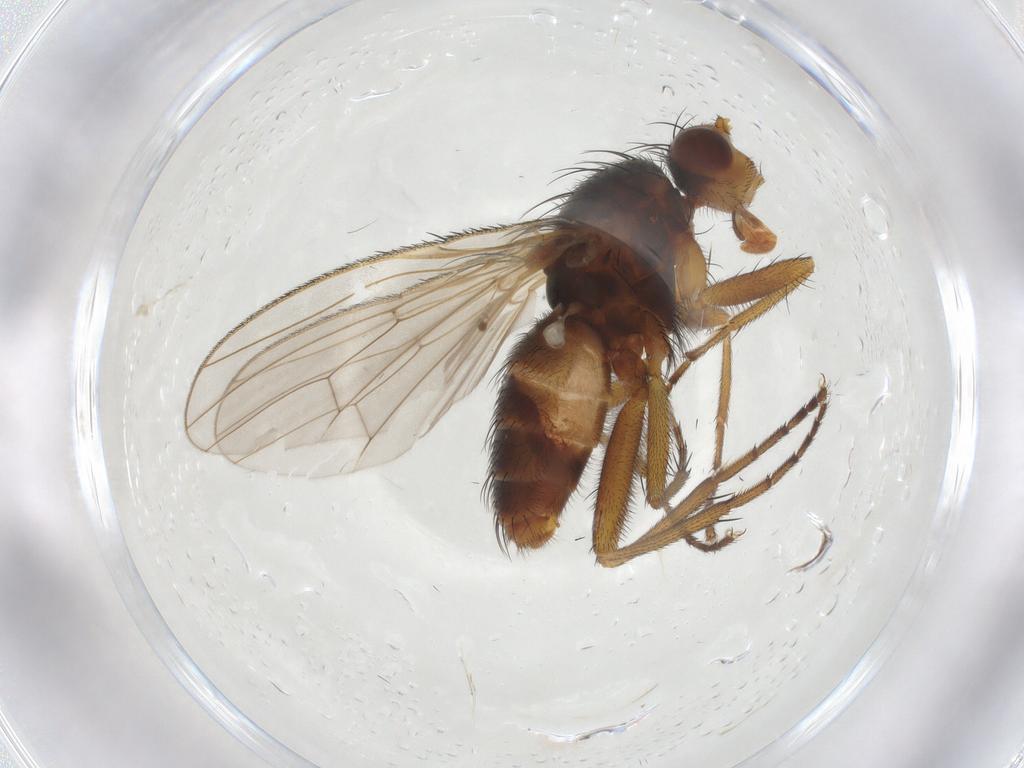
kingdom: Animalia
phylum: Arthropoda
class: Insecta
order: Diptera
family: Heleomyzidae
